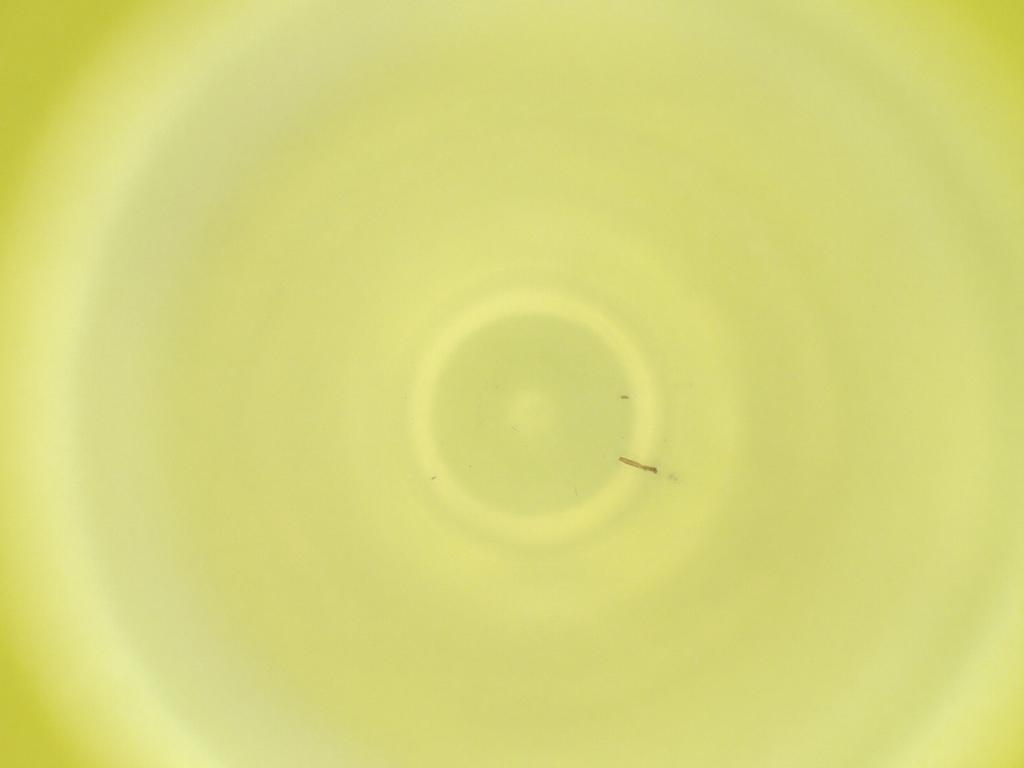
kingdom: Animalia
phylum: Arthropoda
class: Insecta
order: Diptera
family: Cecidomyiidae
